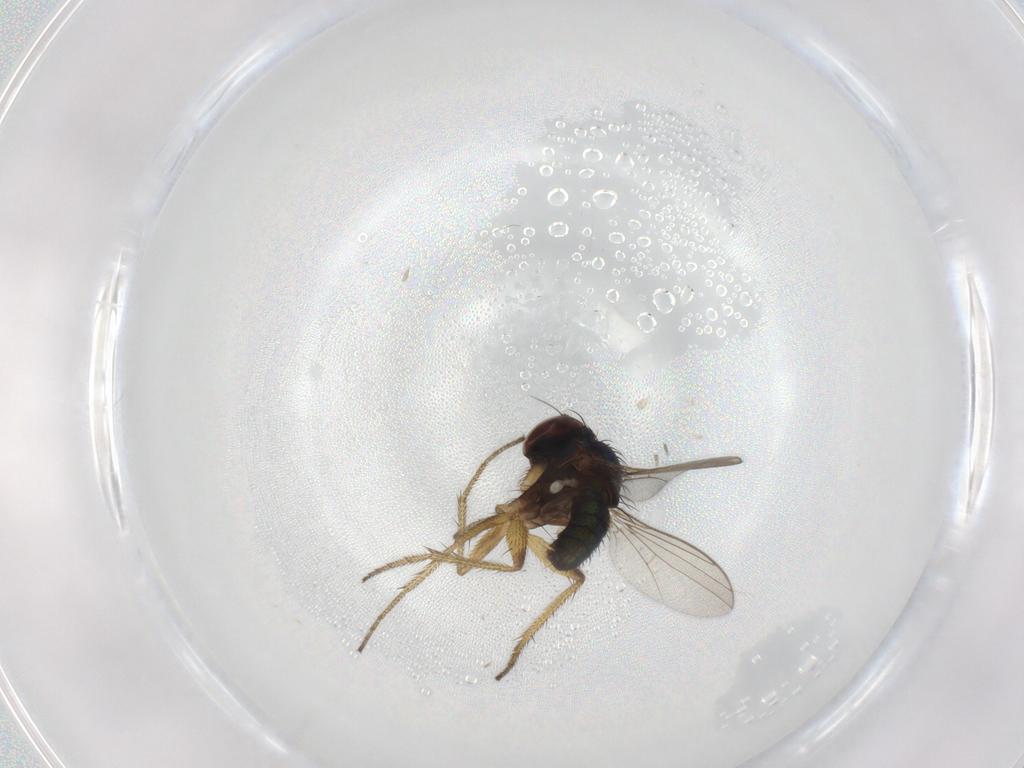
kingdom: Animalia
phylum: Arthropoda
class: Insecta
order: Diptera
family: Dolichopodidae
